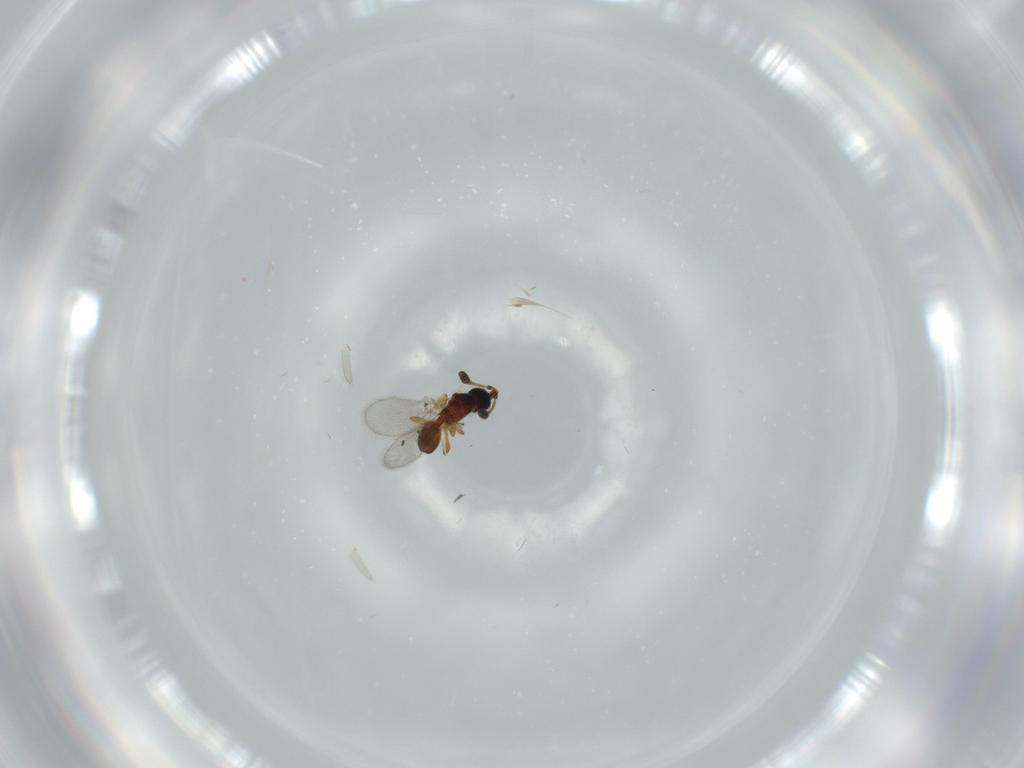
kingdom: Animalia
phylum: Arthropoda
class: Insecta
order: Hymenoptera
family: Diapriidae
